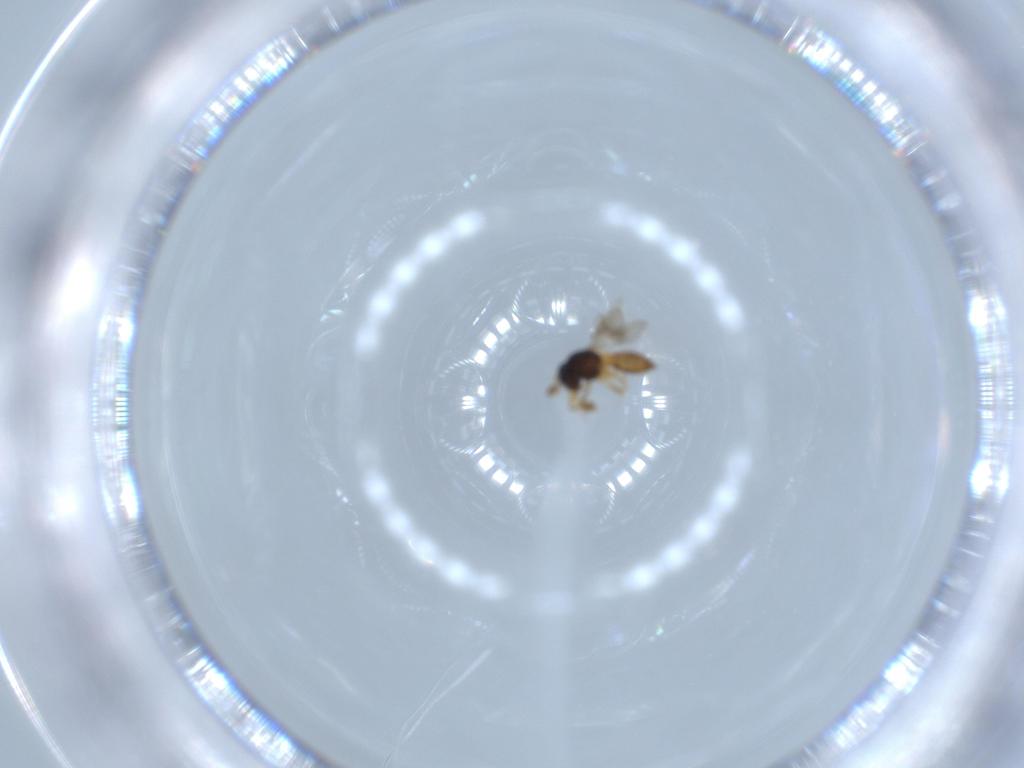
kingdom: Animalia
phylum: Arthropoda
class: Insecta
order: Hymenoptera
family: Scelionidae
